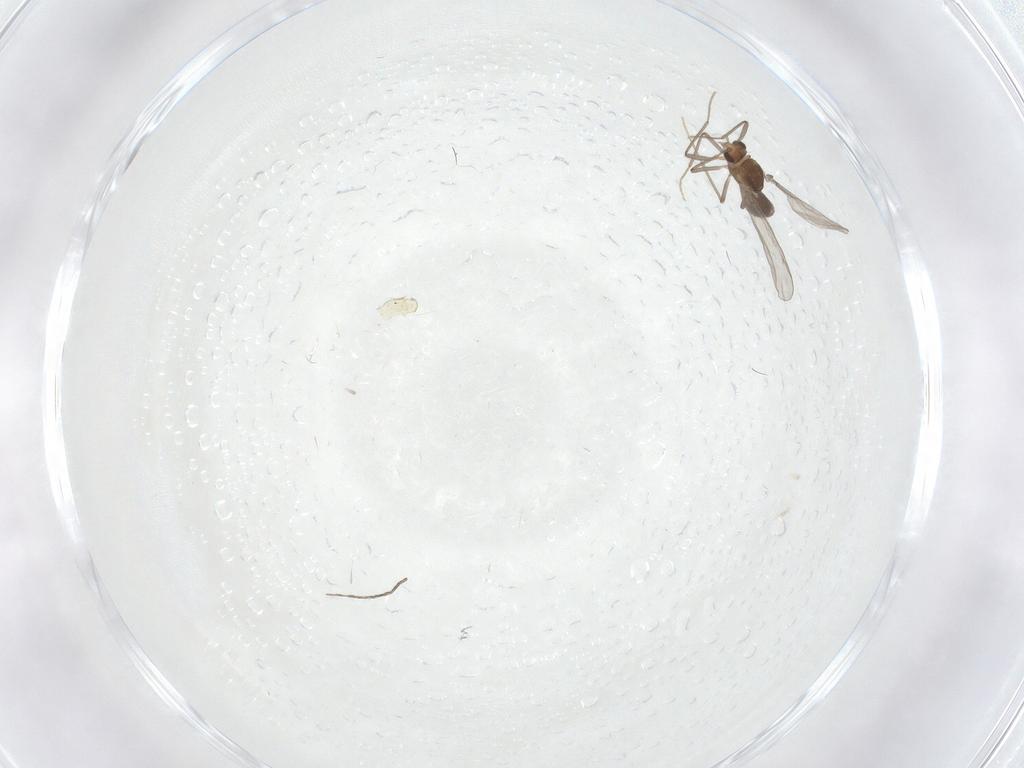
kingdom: Animalia
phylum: Arthropoda
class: Insecta
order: Diptera
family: Chironomidae
